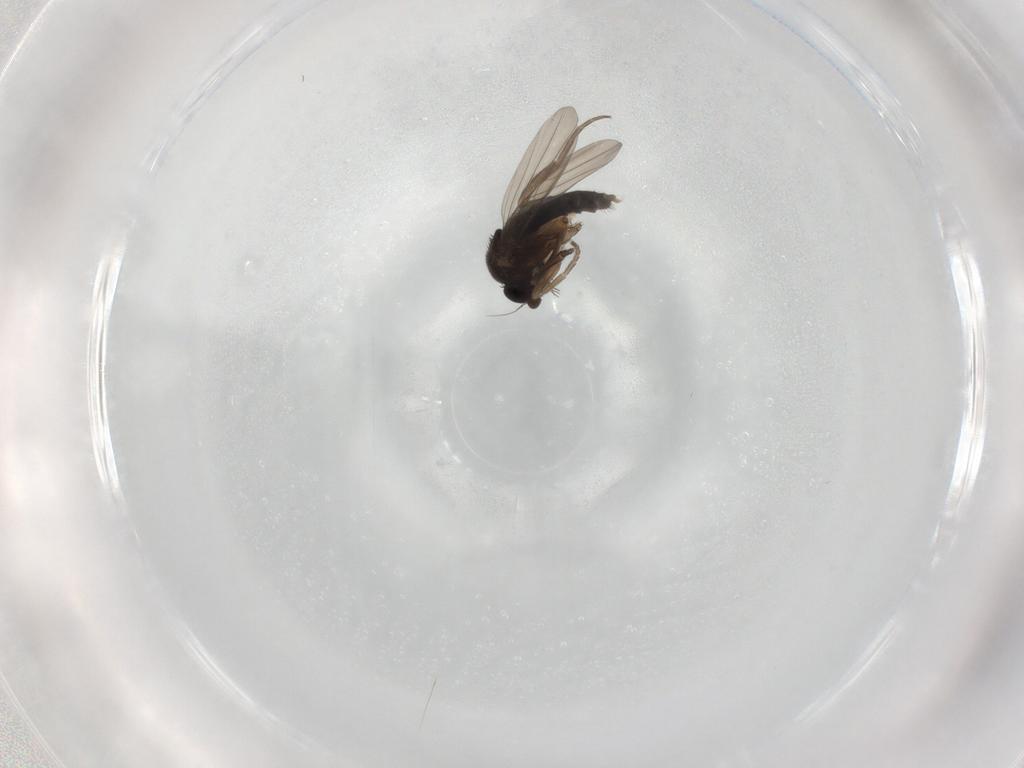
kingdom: Animalia
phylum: Arthropoda
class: Insecta
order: Diptera
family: Phoridae
